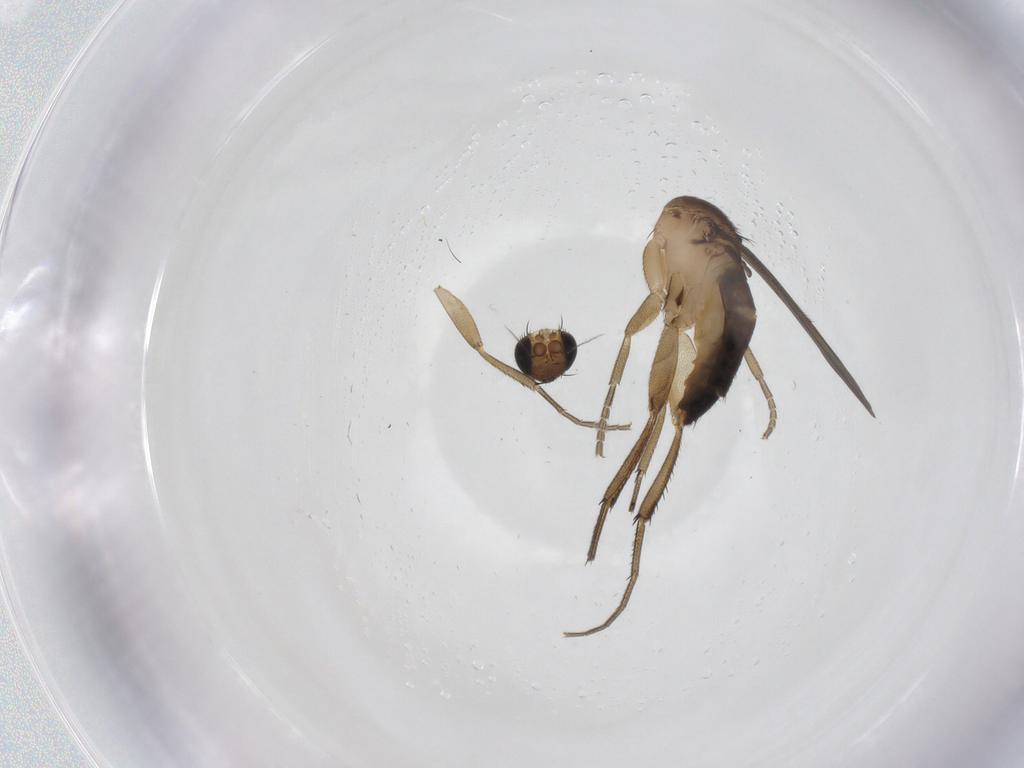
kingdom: Animalia
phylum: Arthropoda
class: Insecta
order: Diptera
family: Phoridae
